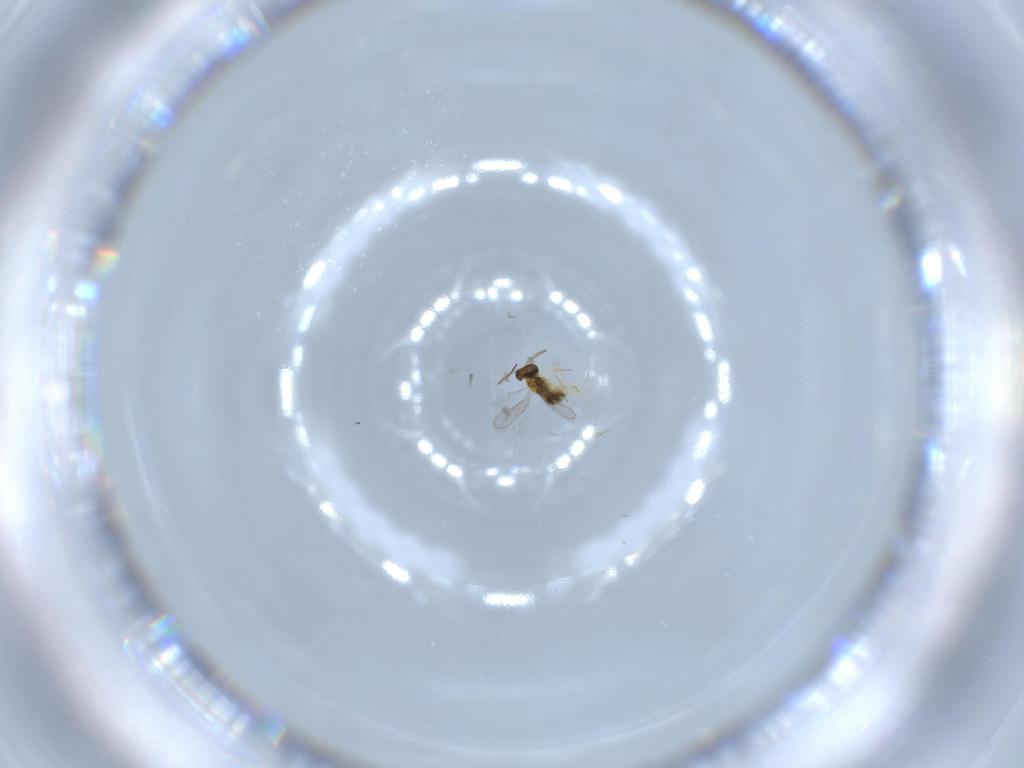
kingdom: Animalia
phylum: Arthropoda
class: Insecta
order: Hymenoptera
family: Aphelinidae
